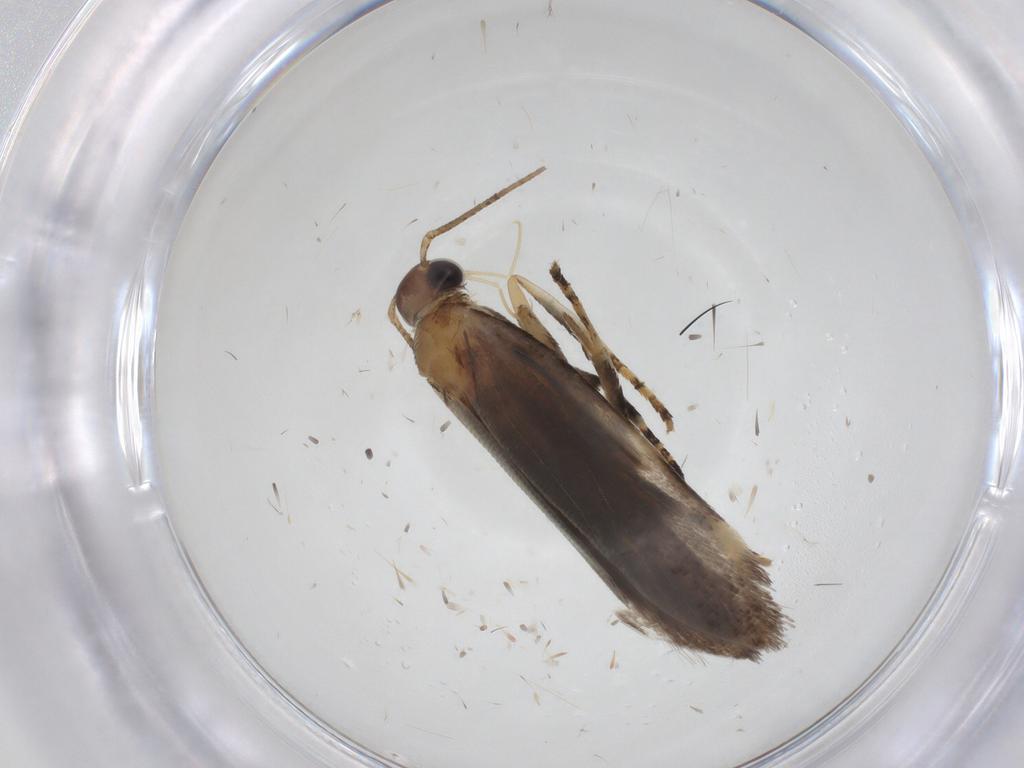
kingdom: Animalia
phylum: Arthropoda
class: Insecta
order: Lepidoptera
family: Gelechiidae
